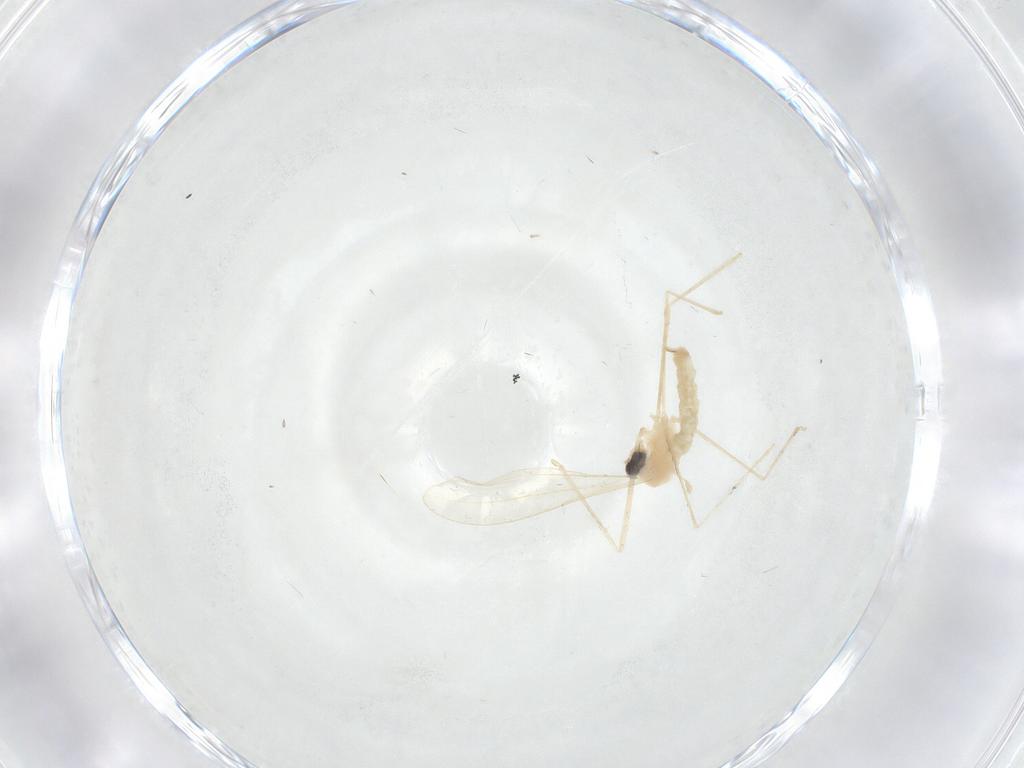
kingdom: Animalia
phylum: Arthropoda
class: Insecta
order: Diptera
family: Cecidomyiidae
